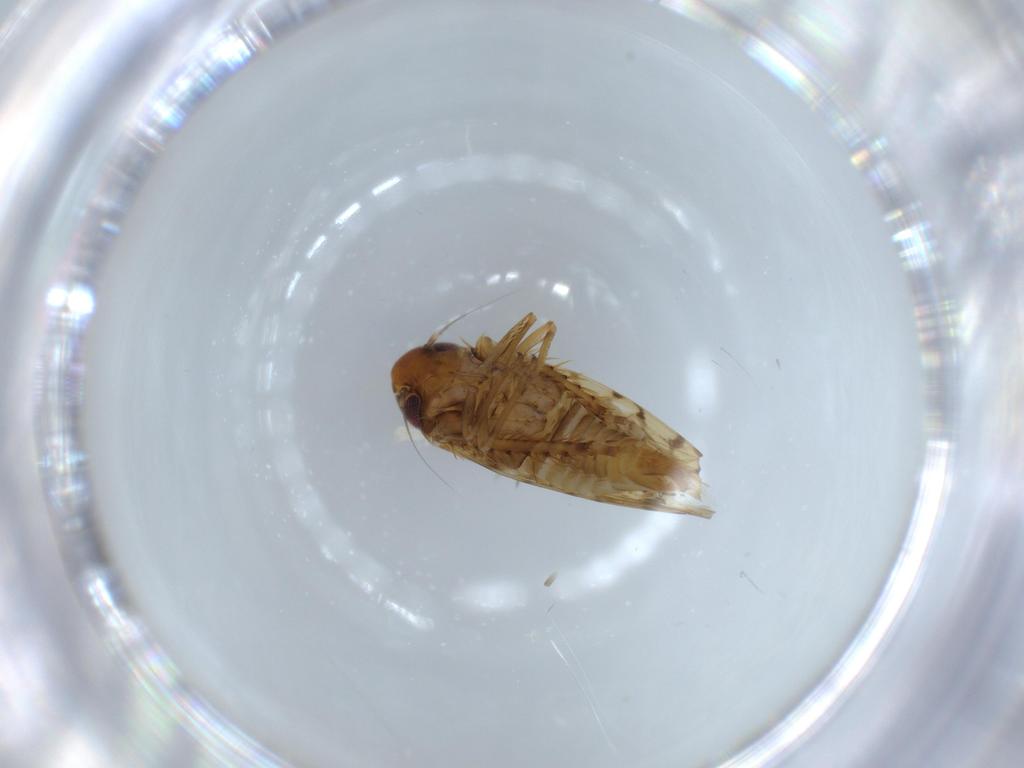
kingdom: Animalia
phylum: Arthropoda
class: Insecta
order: Hemiptera
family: Cicadellidae
